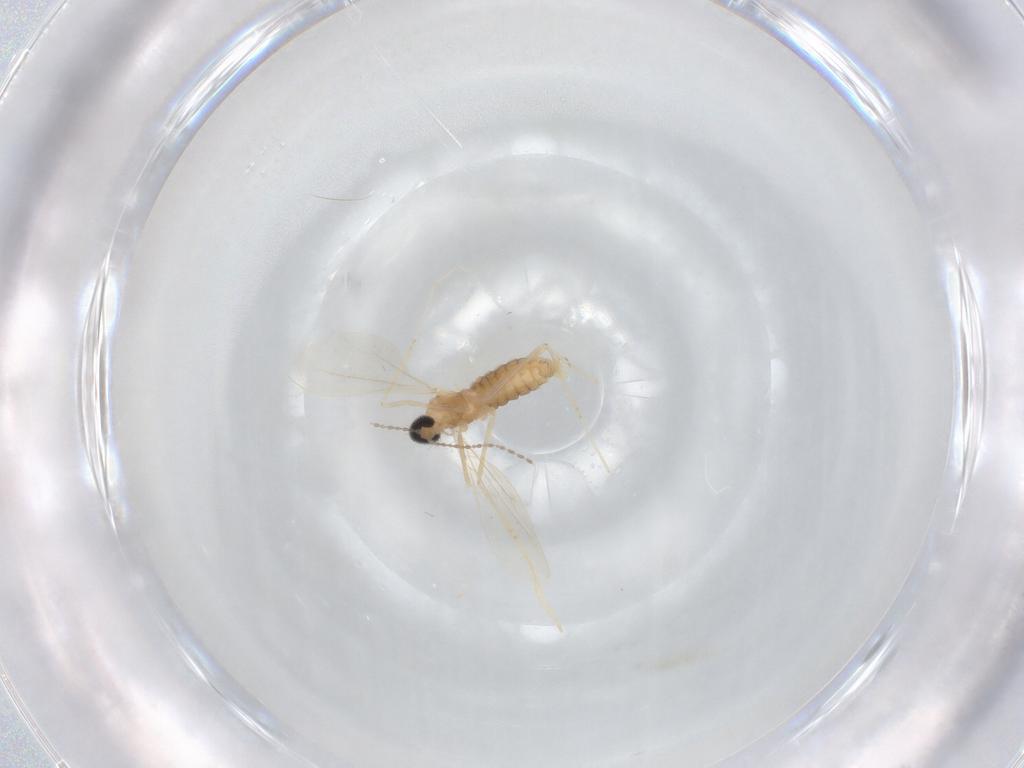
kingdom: Animalia
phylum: Arthropoda
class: Insecta
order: Diptera
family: Cecidomyiidae
